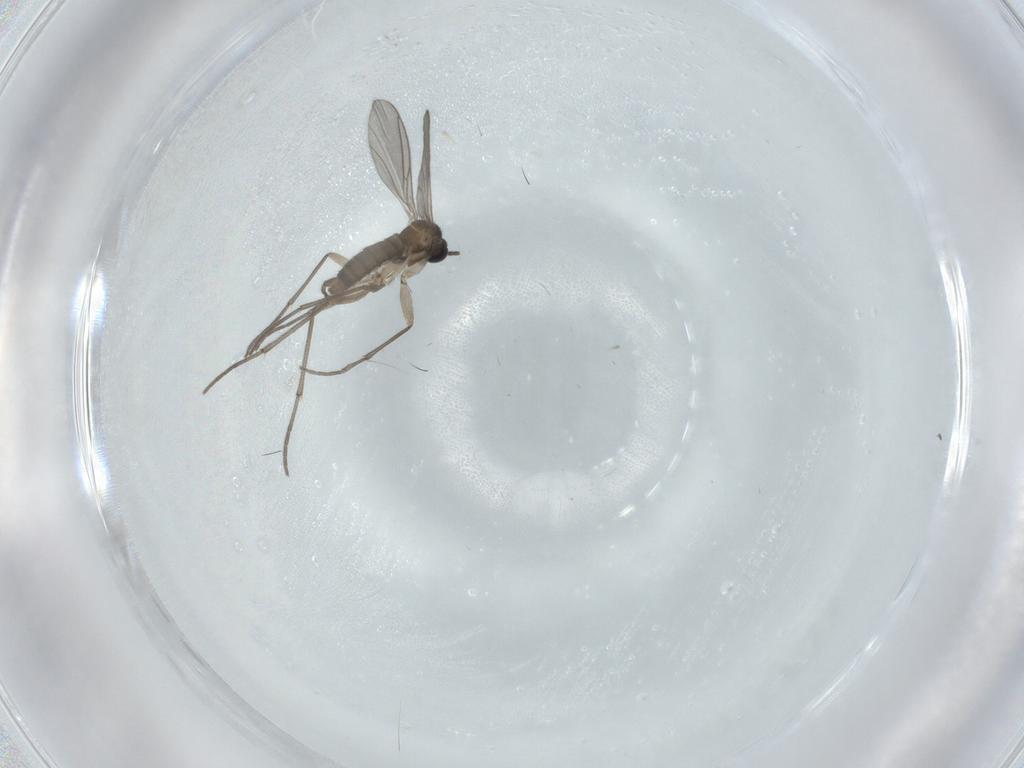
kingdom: Animalia
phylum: Arthropoda
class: Insecta
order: Diptera
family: Sciaridae
